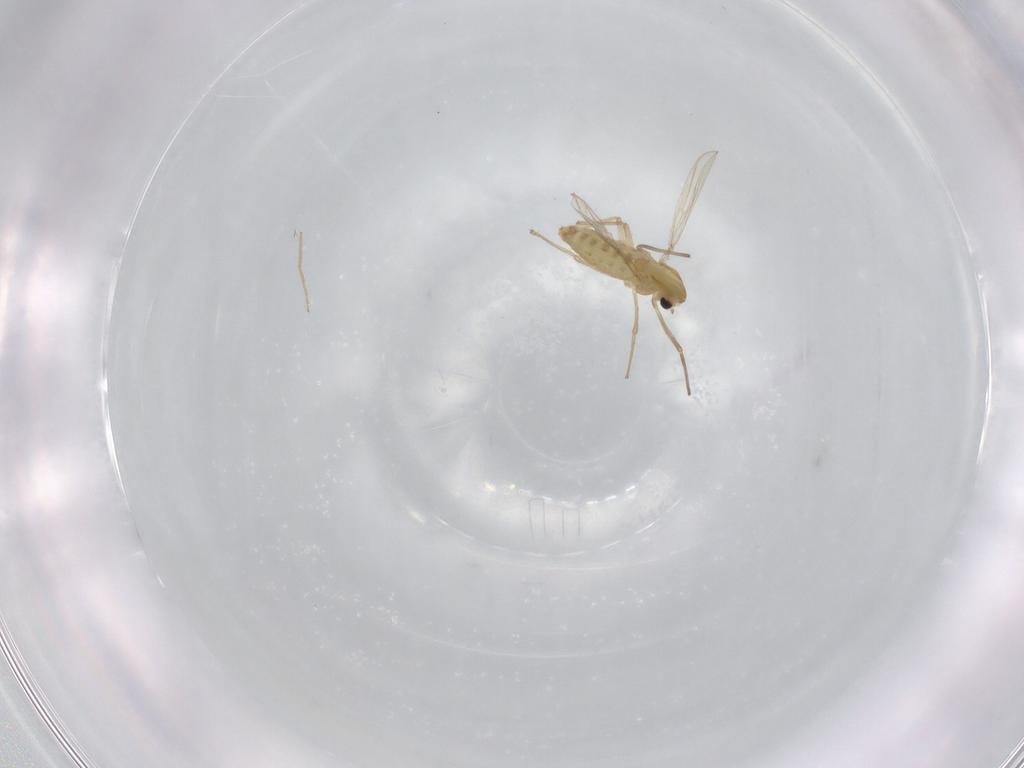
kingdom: Animalia
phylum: Arthropoda
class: Insecta
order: Diptera
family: Chironomidae
